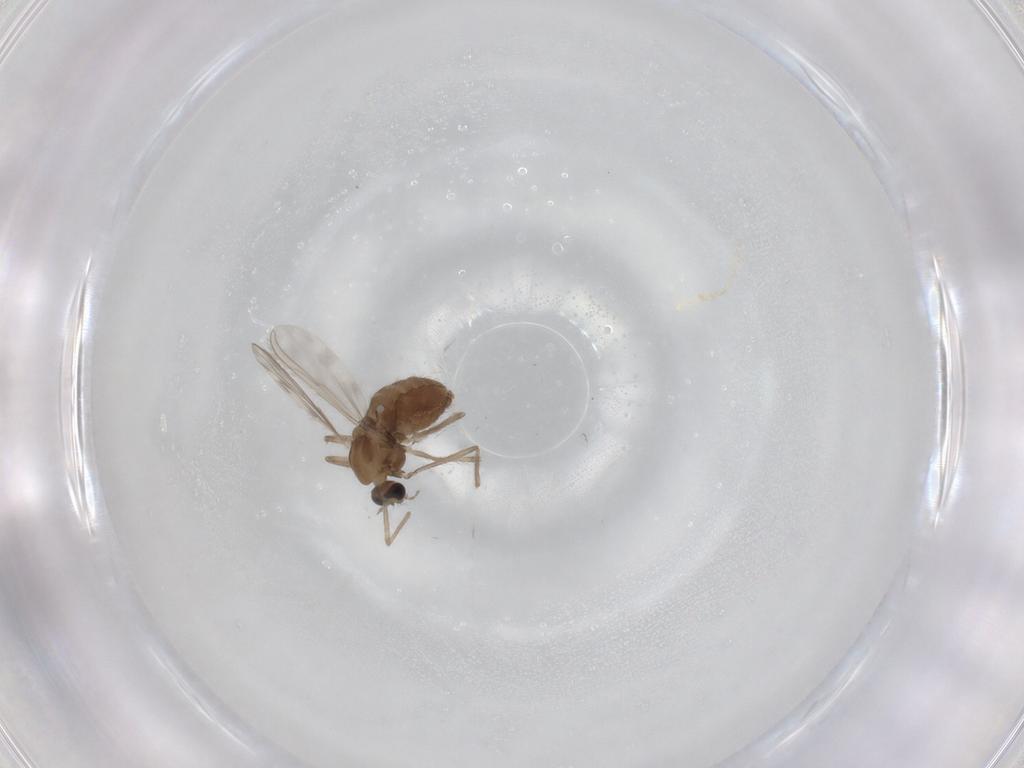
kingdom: Animalia
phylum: Arthropoda
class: Insecta
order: Diptera
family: Chironomidae
